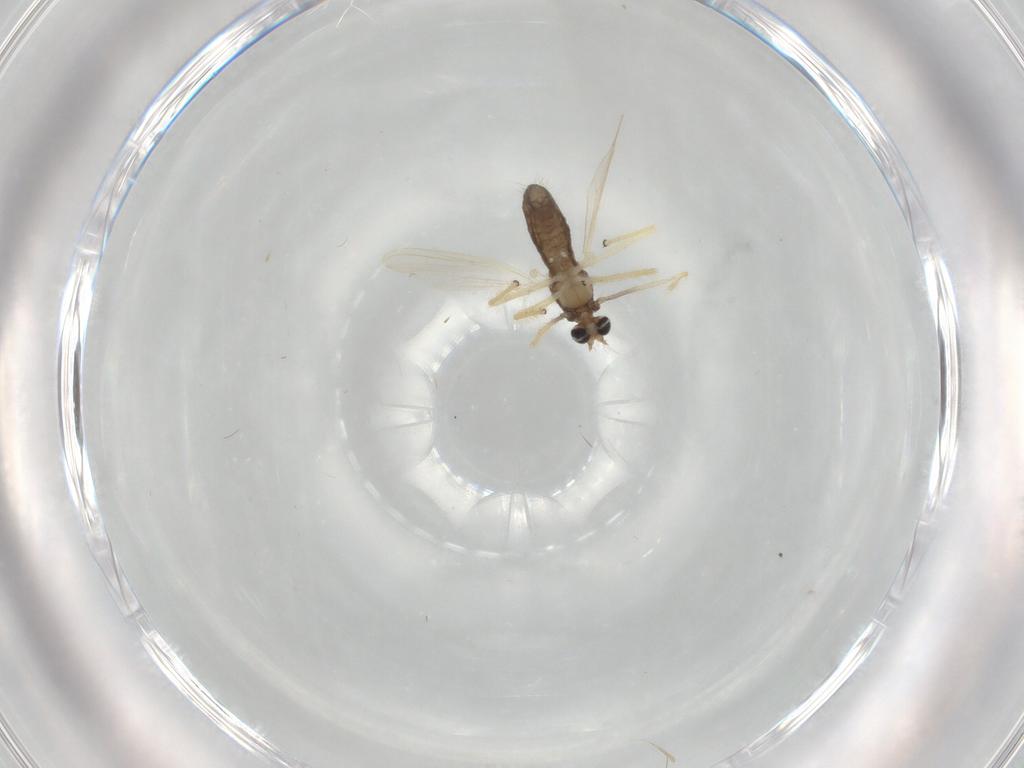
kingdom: Animalia
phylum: Arthropoda
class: Insecta
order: Diptera
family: Chironomidae
